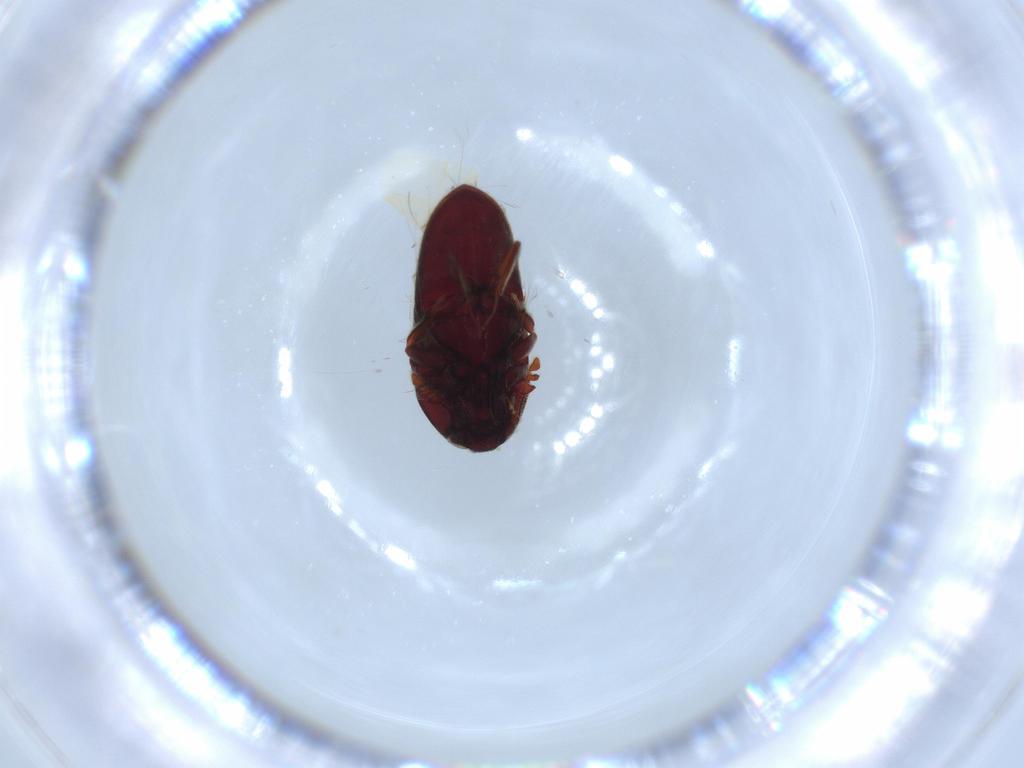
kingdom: Animalia
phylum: Arthropoda
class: Insecta
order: Coleoptera
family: Throscidae
